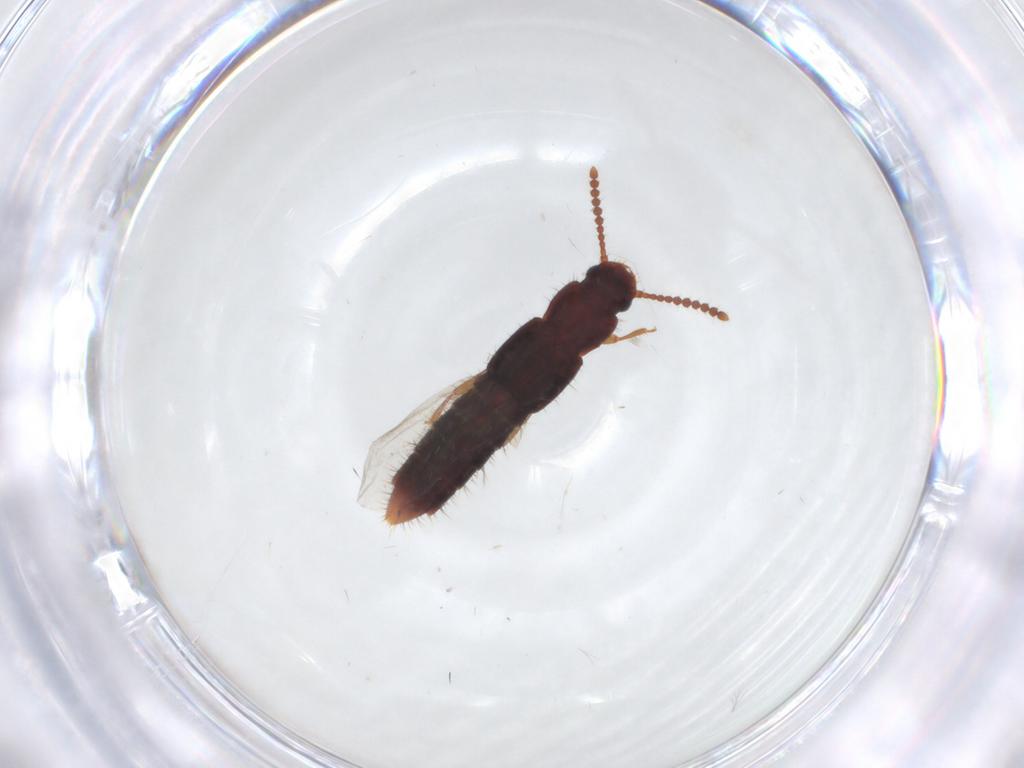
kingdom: Animalia
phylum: Arthropoda
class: Insecta
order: Coleoptera
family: Staphylinidae
